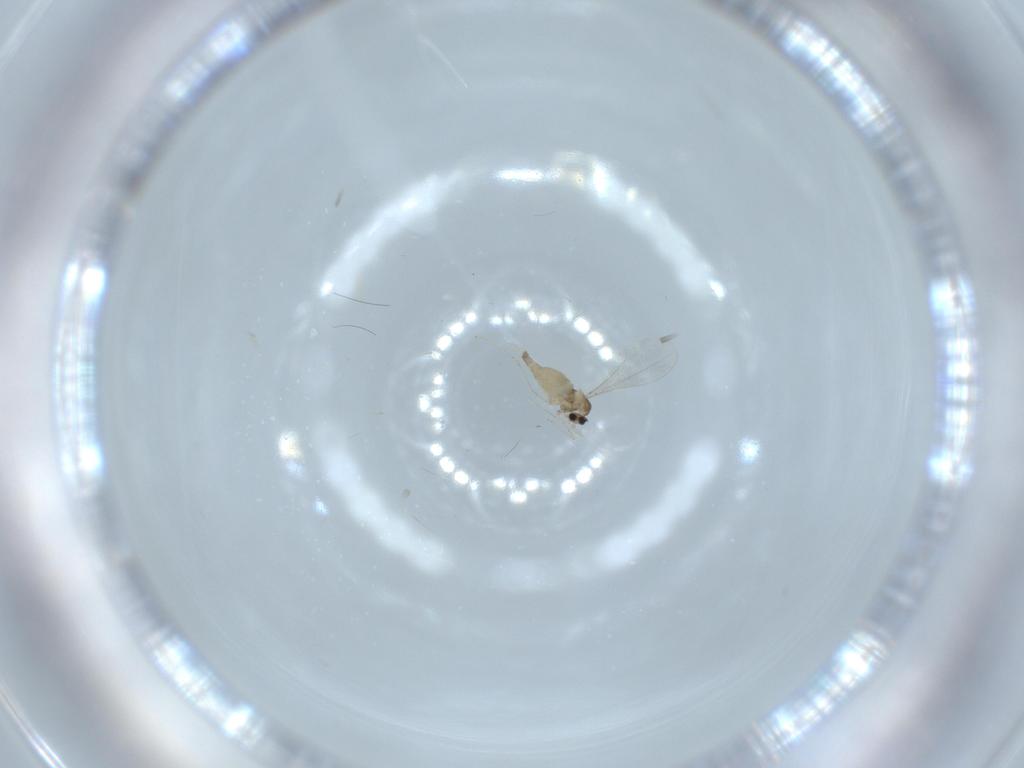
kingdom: Animalia
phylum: Arthropoda
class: Insecta
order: Diptera
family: Cecidomyiidae
